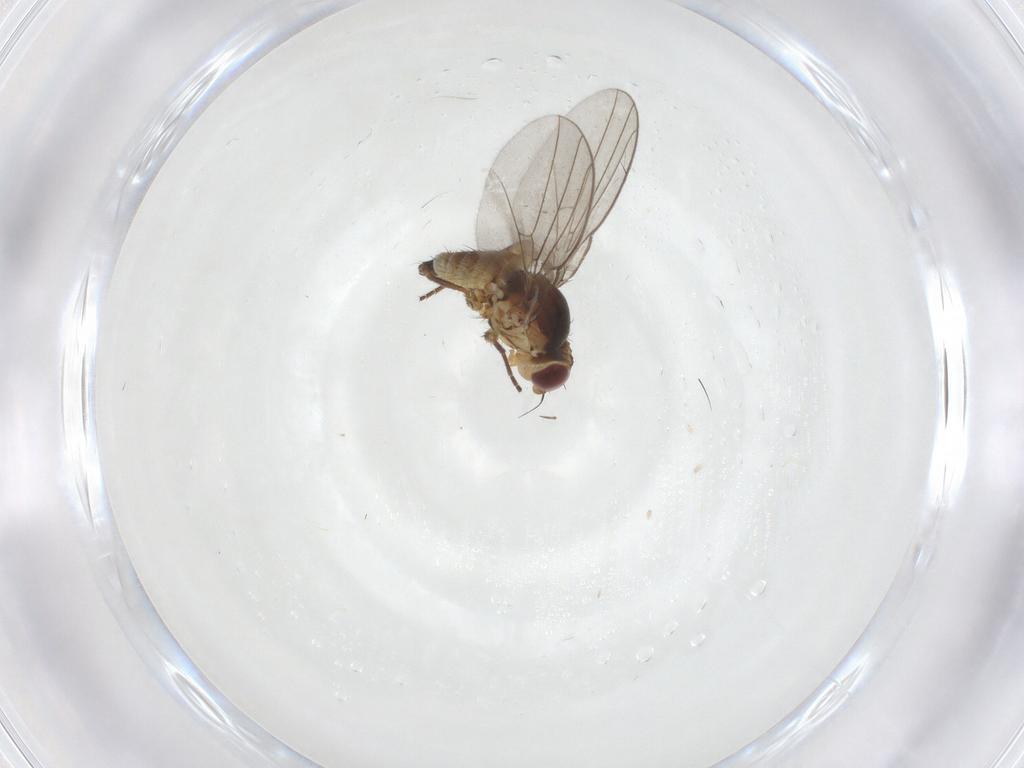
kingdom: Animalia
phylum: Arthropoda
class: Insecta
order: Diptera
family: Agromyzidae
